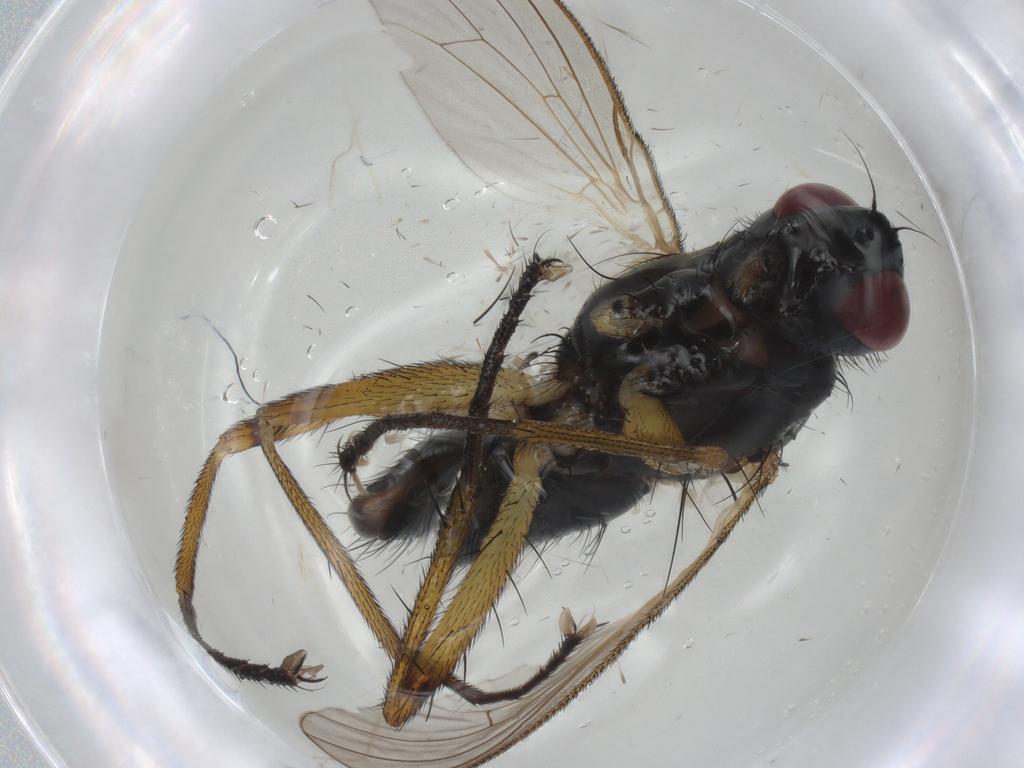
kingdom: Animalia
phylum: Arthropoda
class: Insecta
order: Diptera
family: Muscidae
